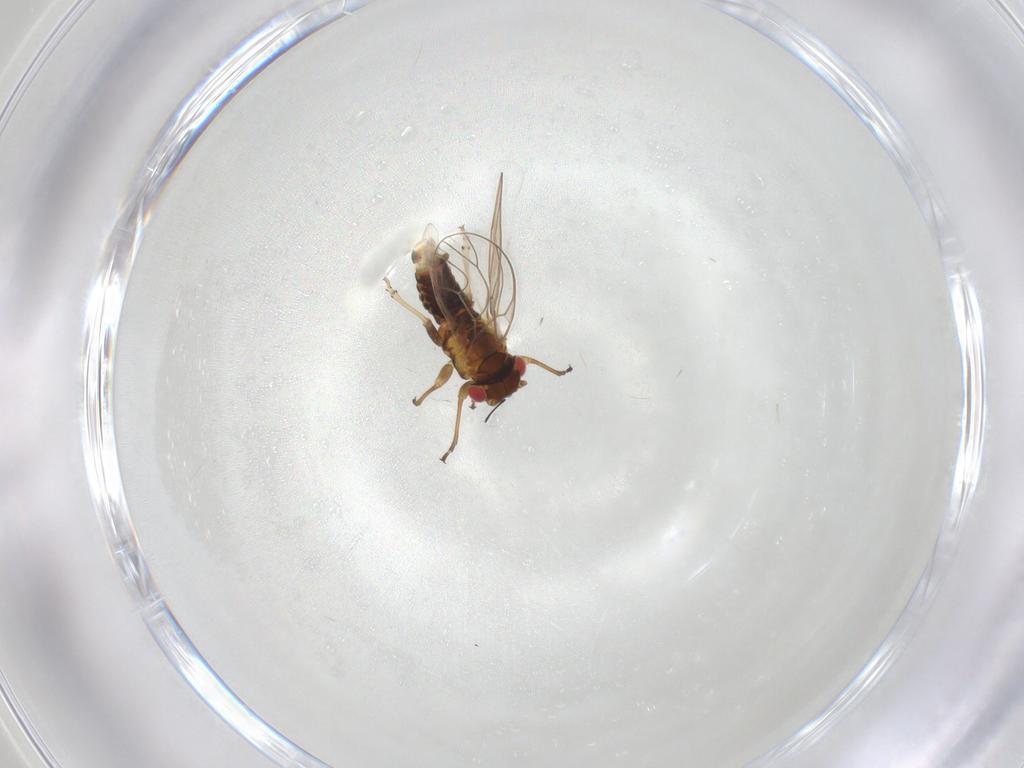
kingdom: Animalia
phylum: Arthropoda
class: Insecta
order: Hemiptera
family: Psyllidae
